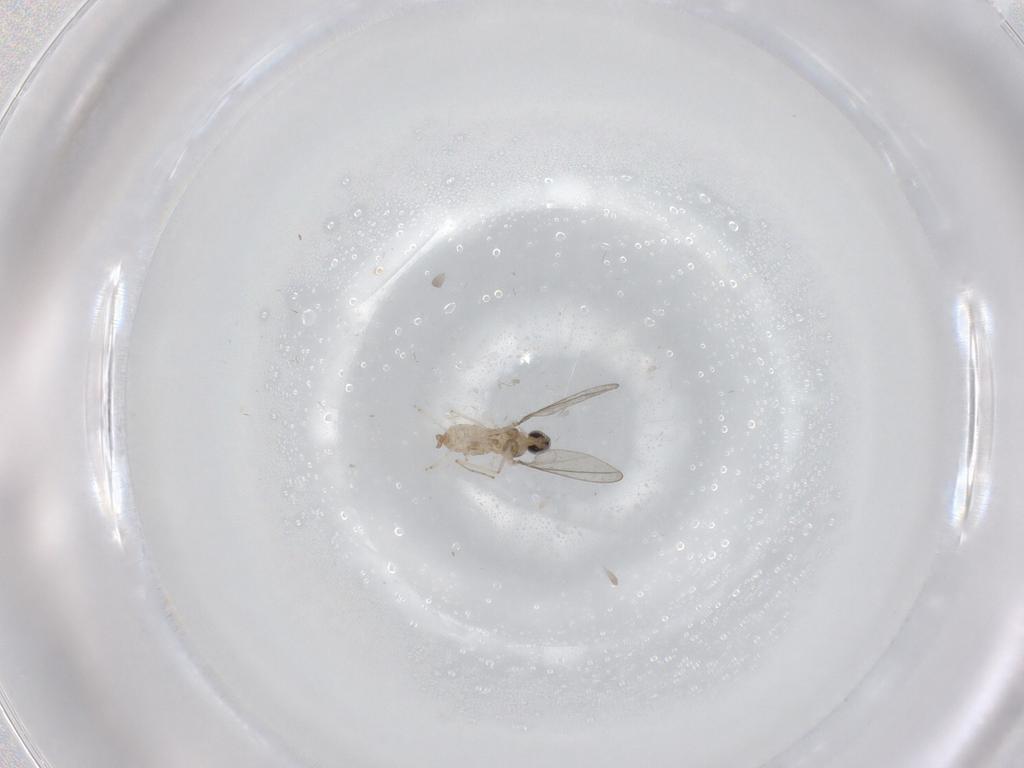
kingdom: Animalia
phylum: Arthropoda
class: Insecta
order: Diptera
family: Cecidomyiidae
